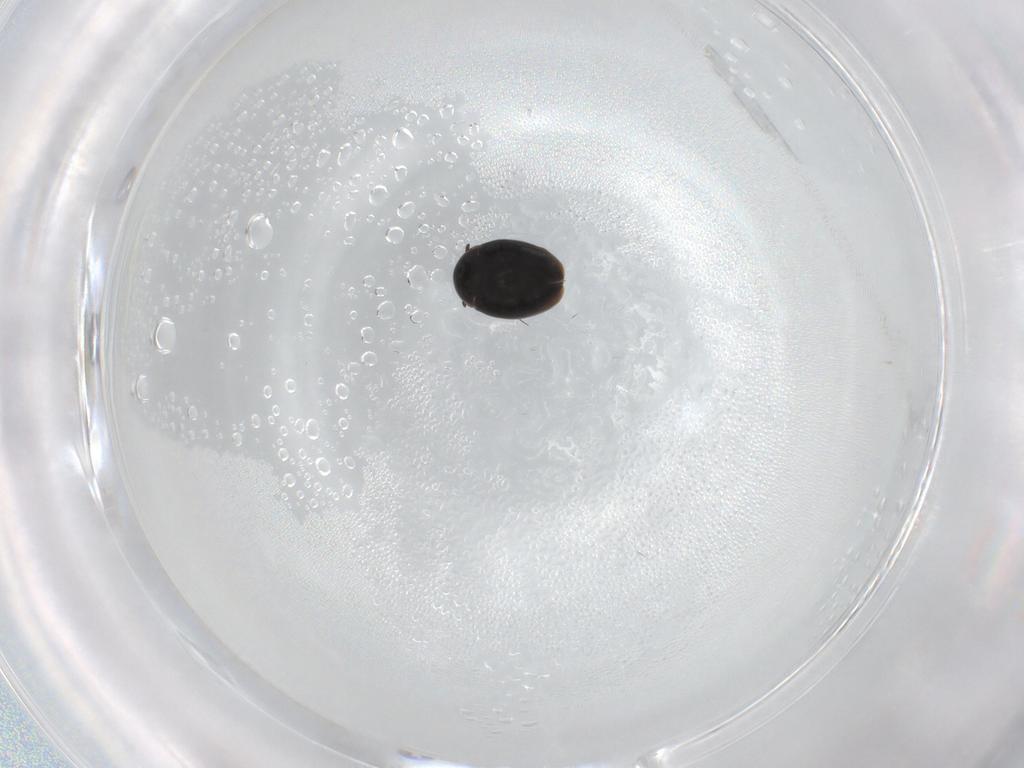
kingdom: Animalia
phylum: Arthropoda
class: Insecta
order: Coleoptera
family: Corylophidae
